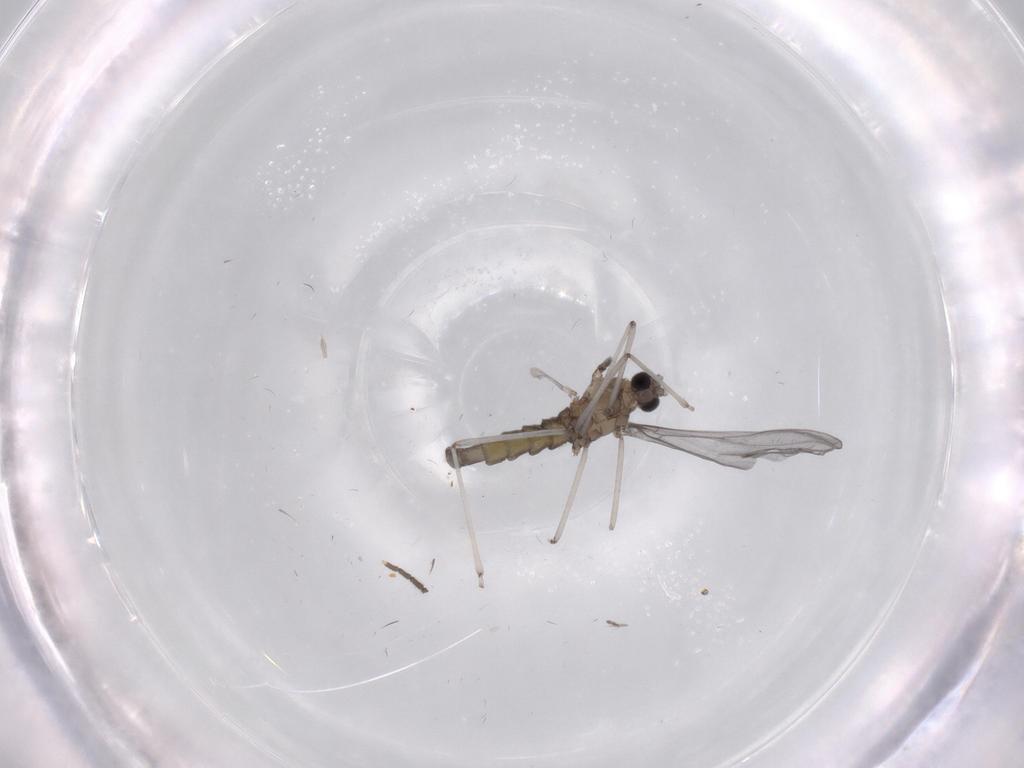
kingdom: Animalia
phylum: Arthropoda
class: Insecta
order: Diptera
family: Cecidomyiidae
